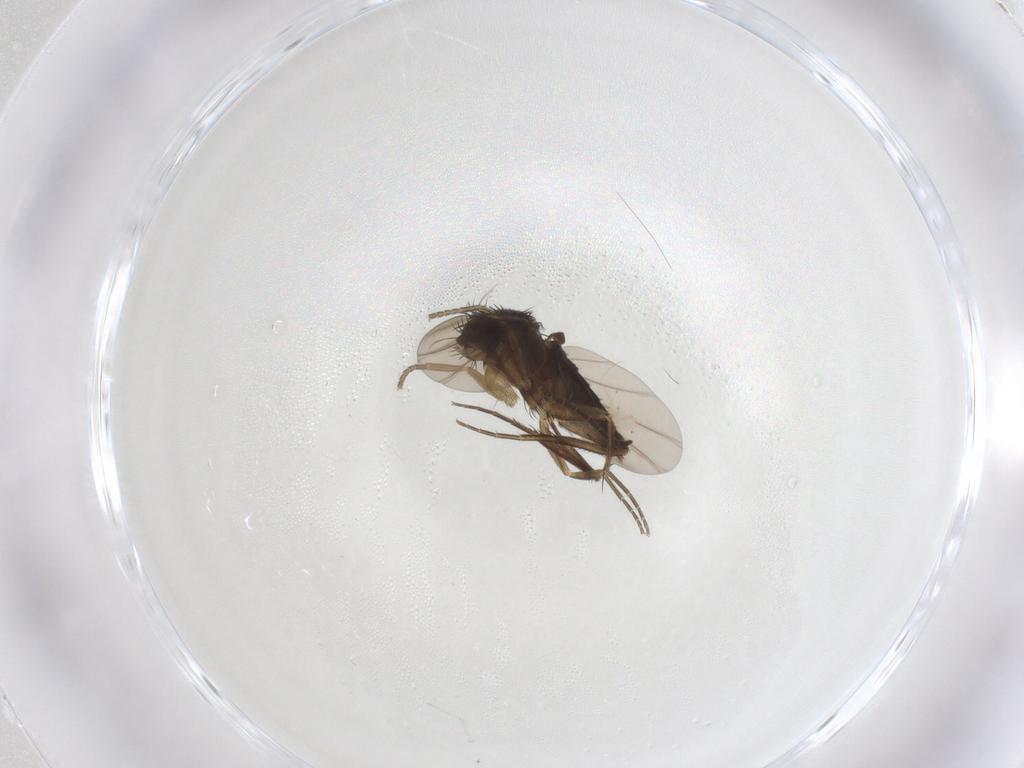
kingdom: Animalia
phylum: Arthropoda
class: Insecta
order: Diptera
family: Phoridae
